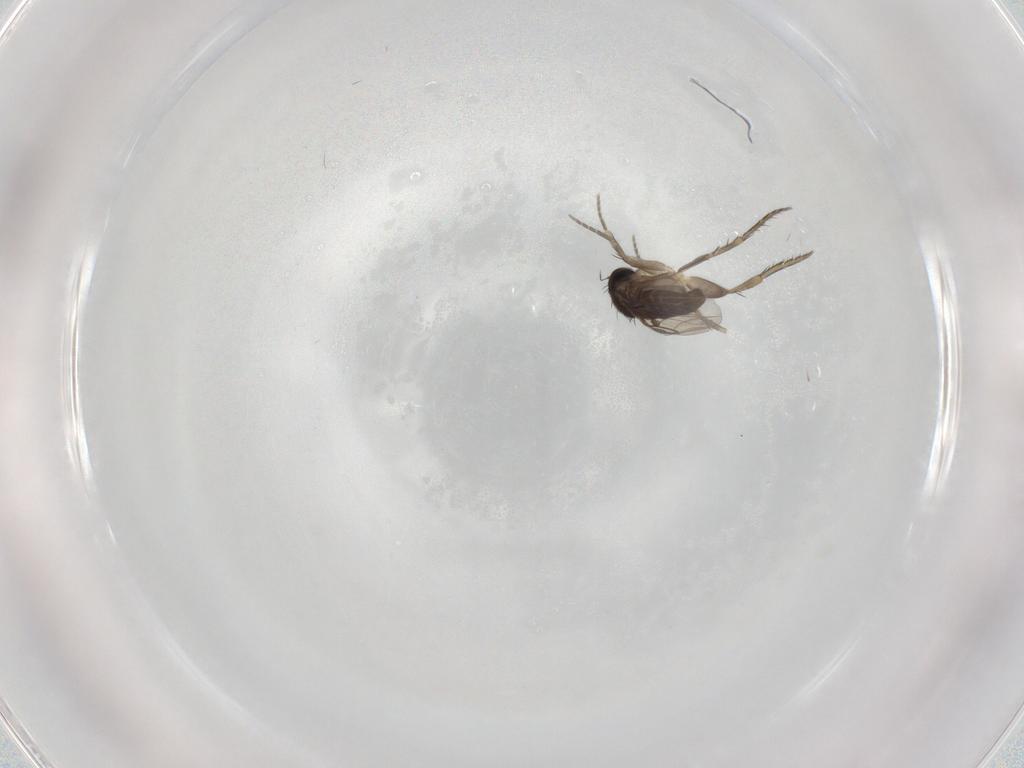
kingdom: Animalia
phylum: Arthropoda
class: Insecta
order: Diptera
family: Phoridae
